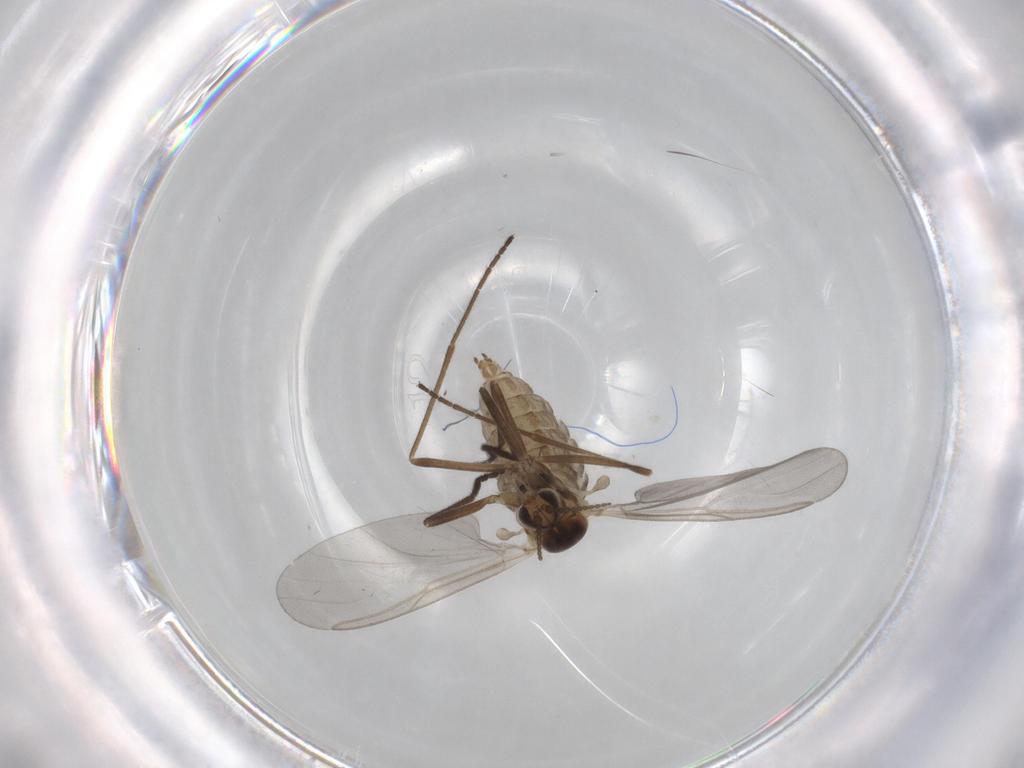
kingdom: Animalia
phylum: Arthropoda
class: Insecta
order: Diptera
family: Cecidomyiidae
